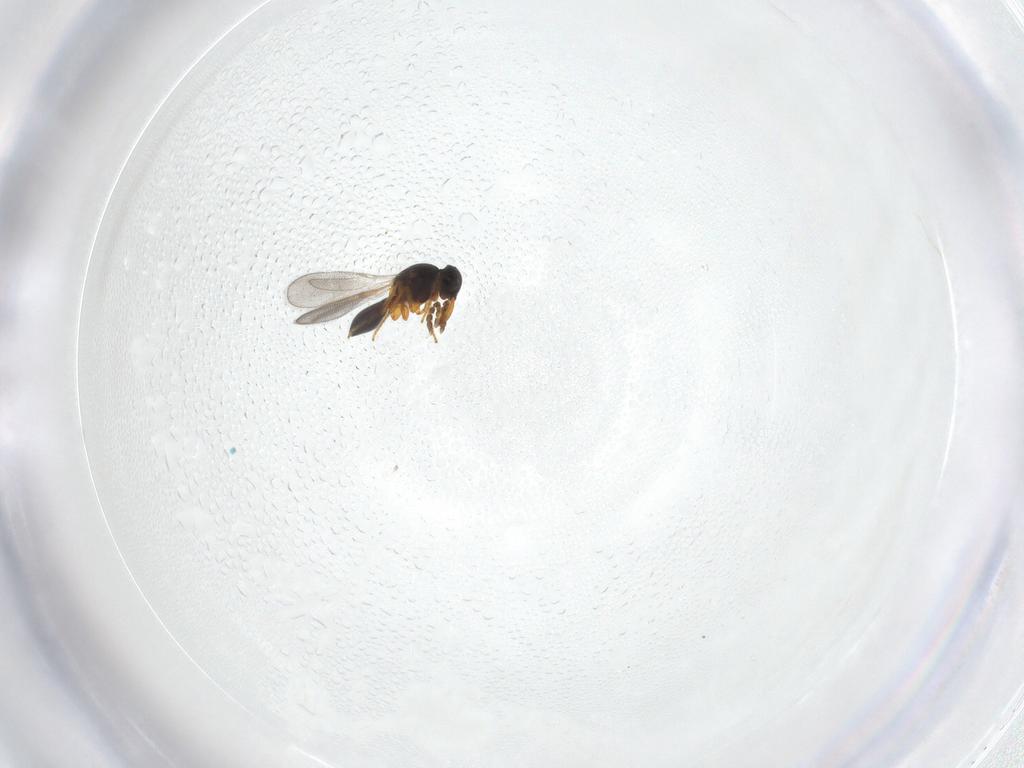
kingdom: Animalia
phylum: Arthropoda
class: Insecta
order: Hymenoptera
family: Platygastridae
